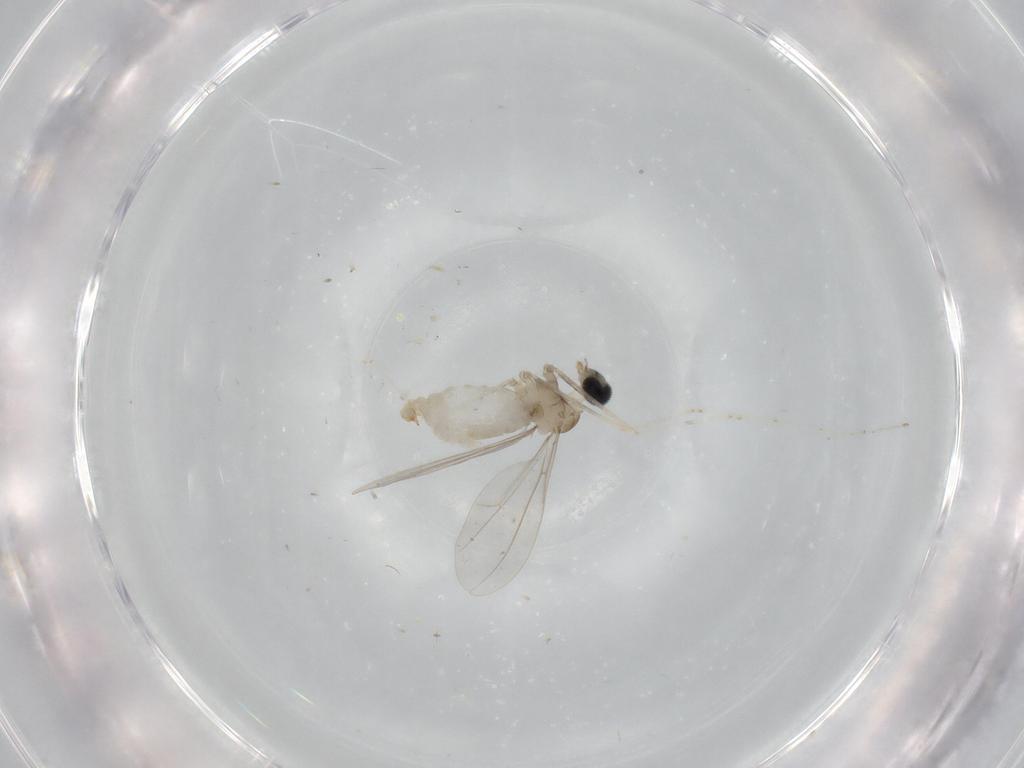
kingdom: Animalia
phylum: Arthropoda
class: Insecta
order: Diptera
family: Cecidomyiidae
